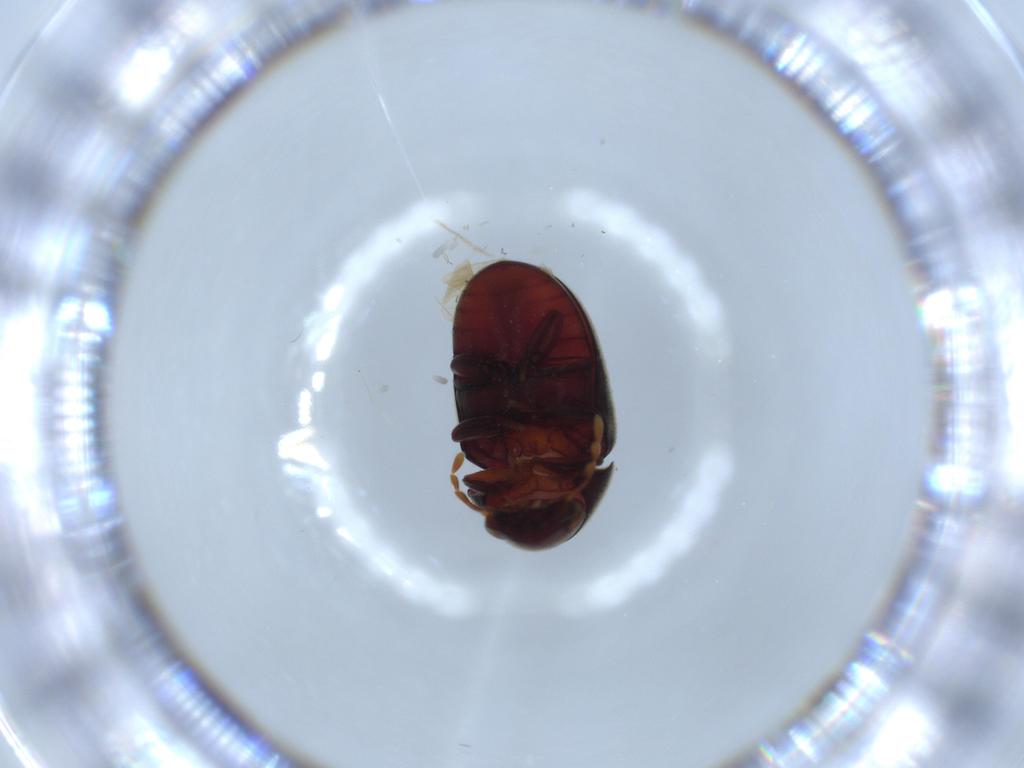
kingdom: Animalia
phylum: Arthropoda
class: Insecta
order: Coleoptera
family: Ptinidae
